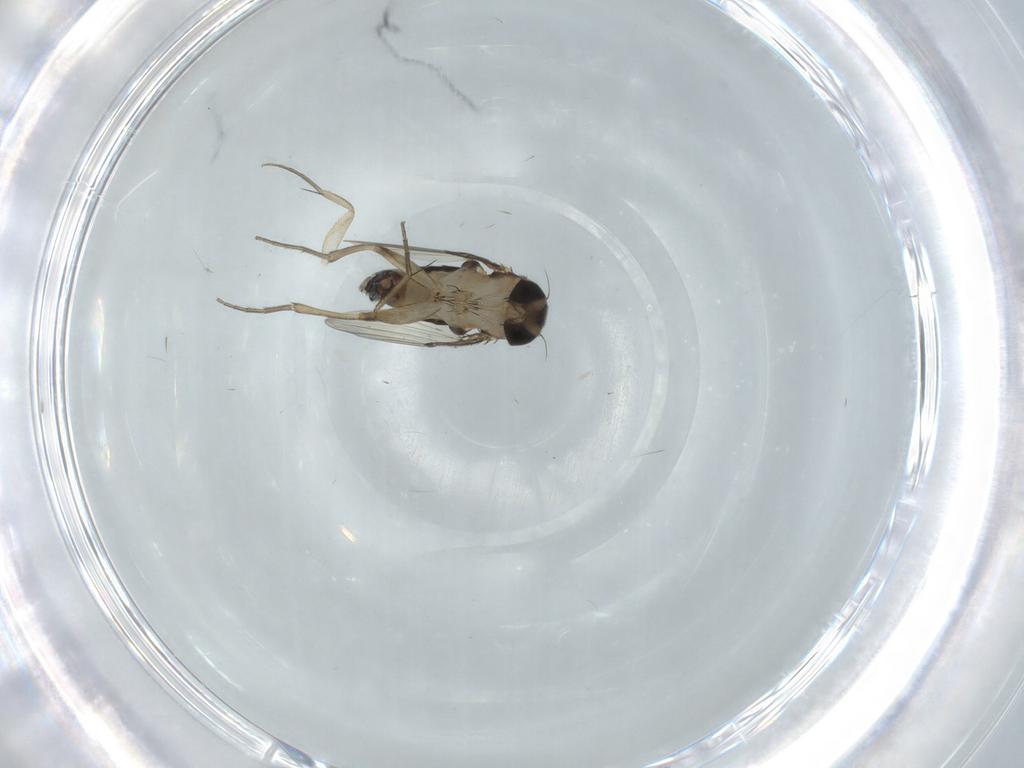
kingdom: Animalia
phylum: Arthropoda
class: Insecta
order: Diptera
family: Phoridae
